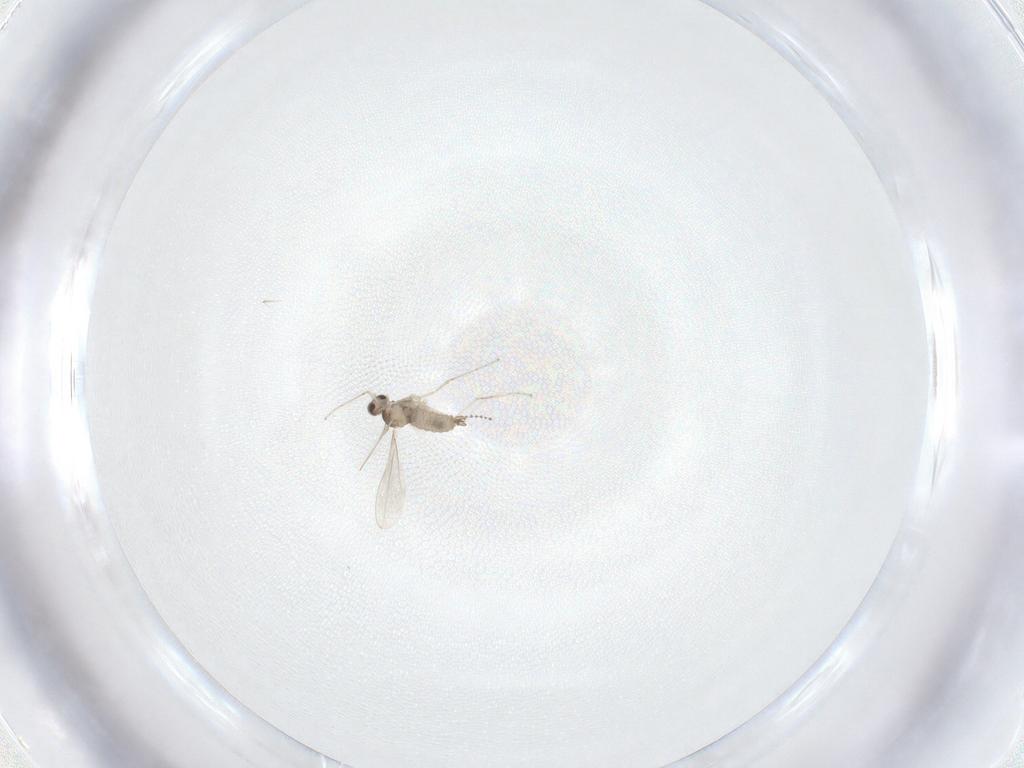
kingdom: Animalia
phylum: Arthropoda
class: Insecta
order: Diptera
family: Cecidomyiidae
